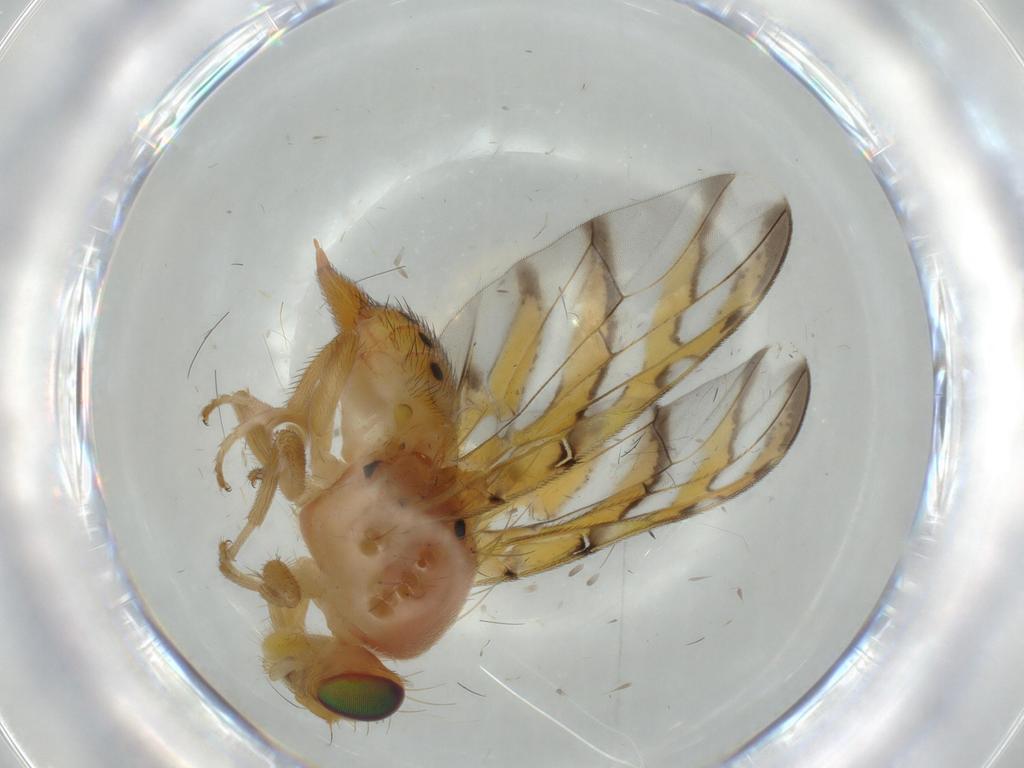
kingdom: Animalia
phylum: Arthropoda
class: Insecta
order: Diptera
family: Tephritidae
